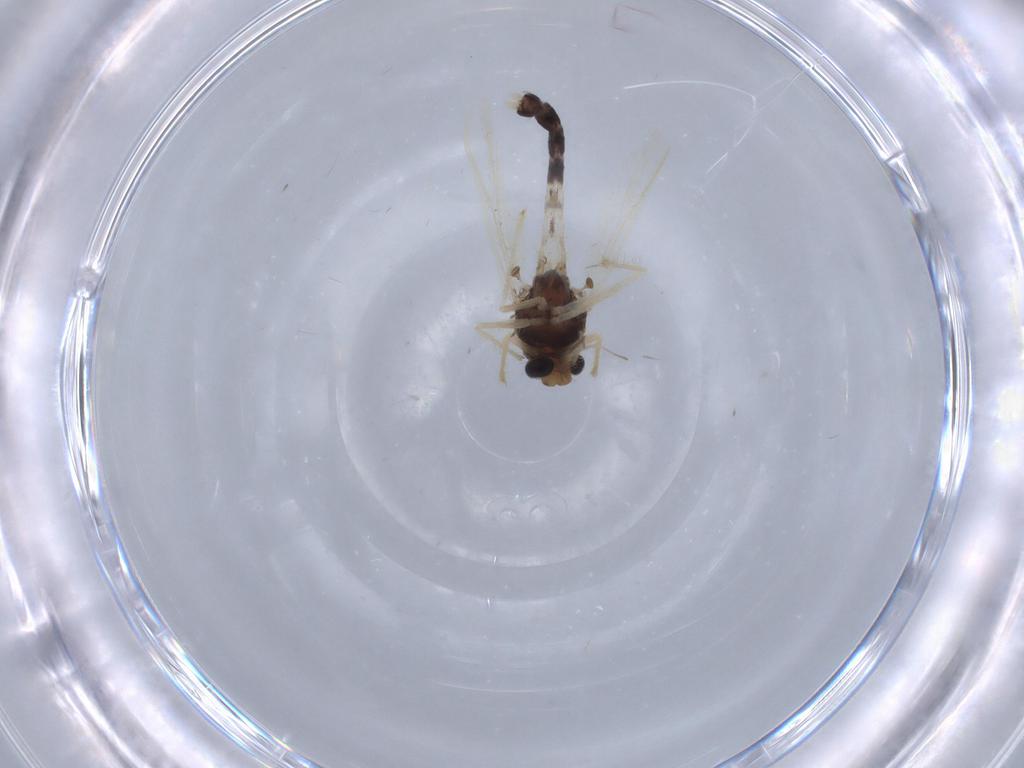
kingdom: Animalia
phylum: Arthropoda
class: Insecta
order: Diptera
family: Chironomidae
